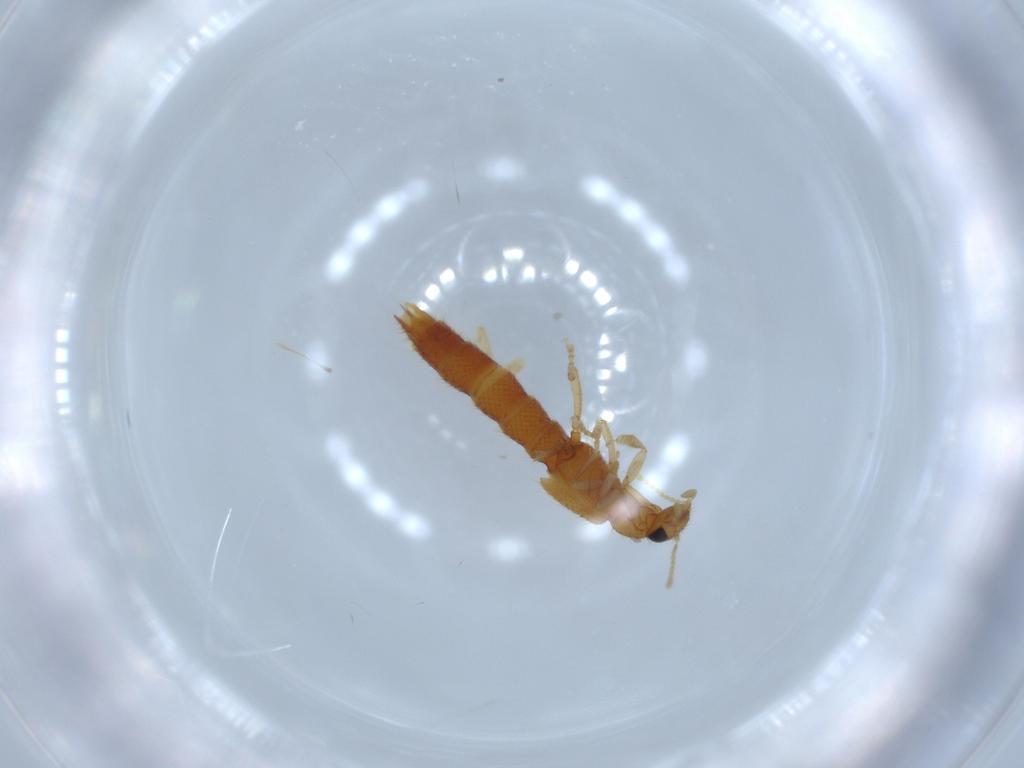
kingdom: Animalia
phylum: Arthropoda
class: Insecta
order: Coleoptera
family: Staphylinidae
